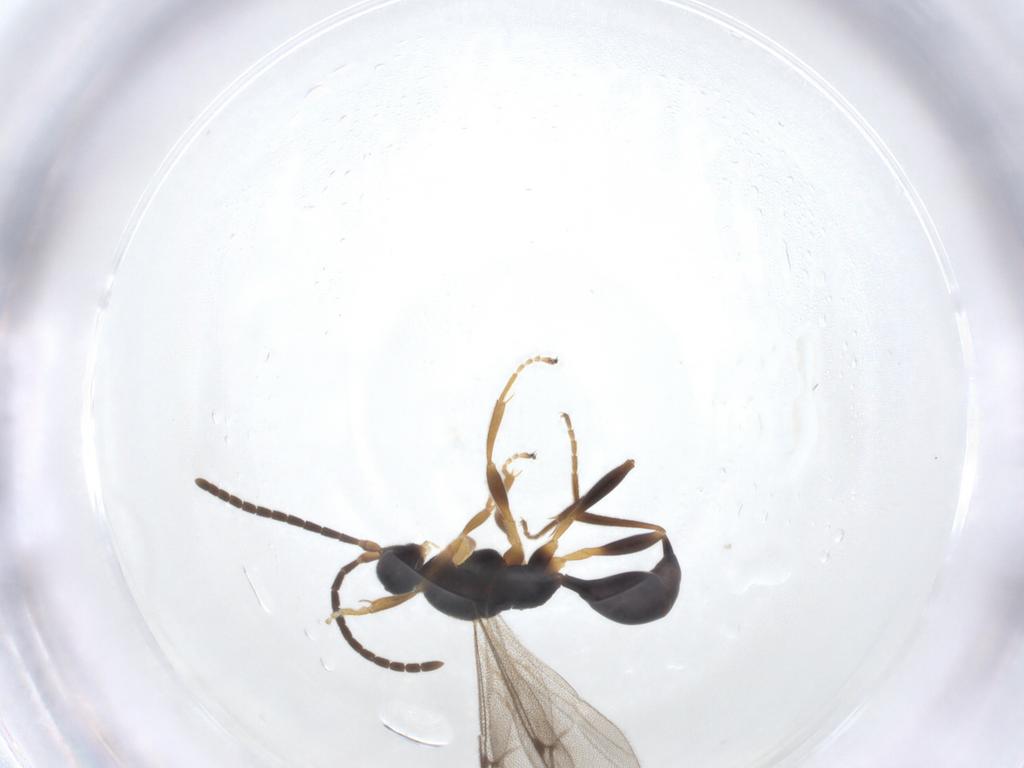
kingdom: Animalia
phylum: Arthropoda
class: Insecta
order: Hymenoptera
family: Proctotrupidae
